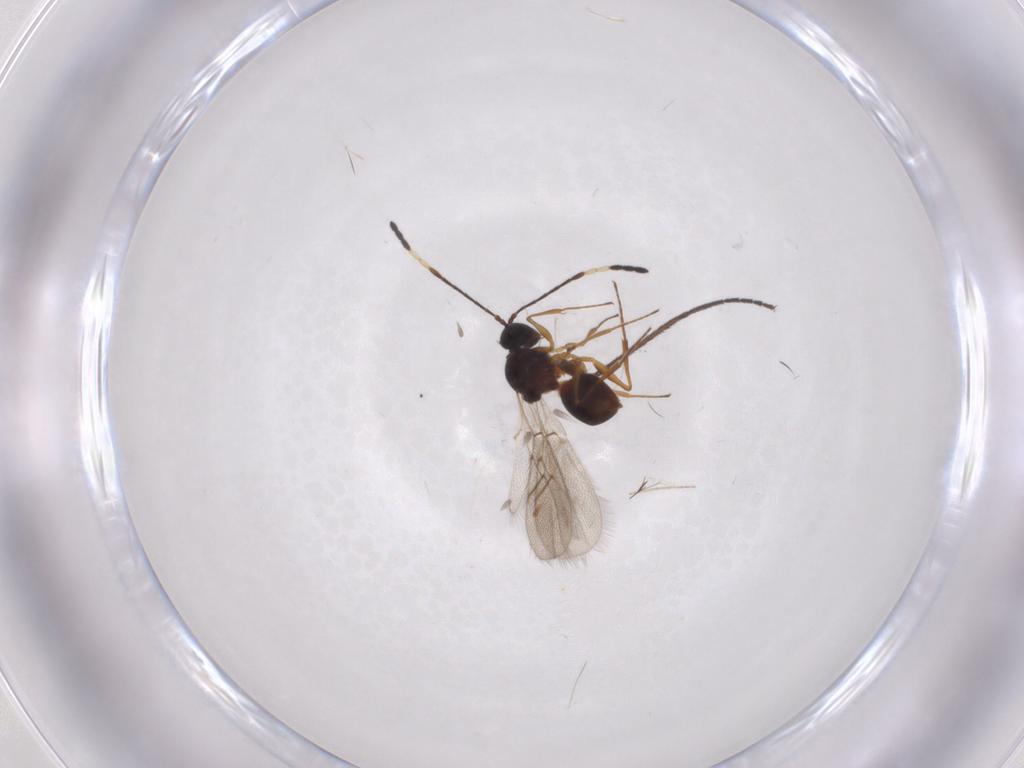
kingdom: Animalia
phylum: Arthropoda
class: Insecta
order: Hymenoptera
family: Figitidae
